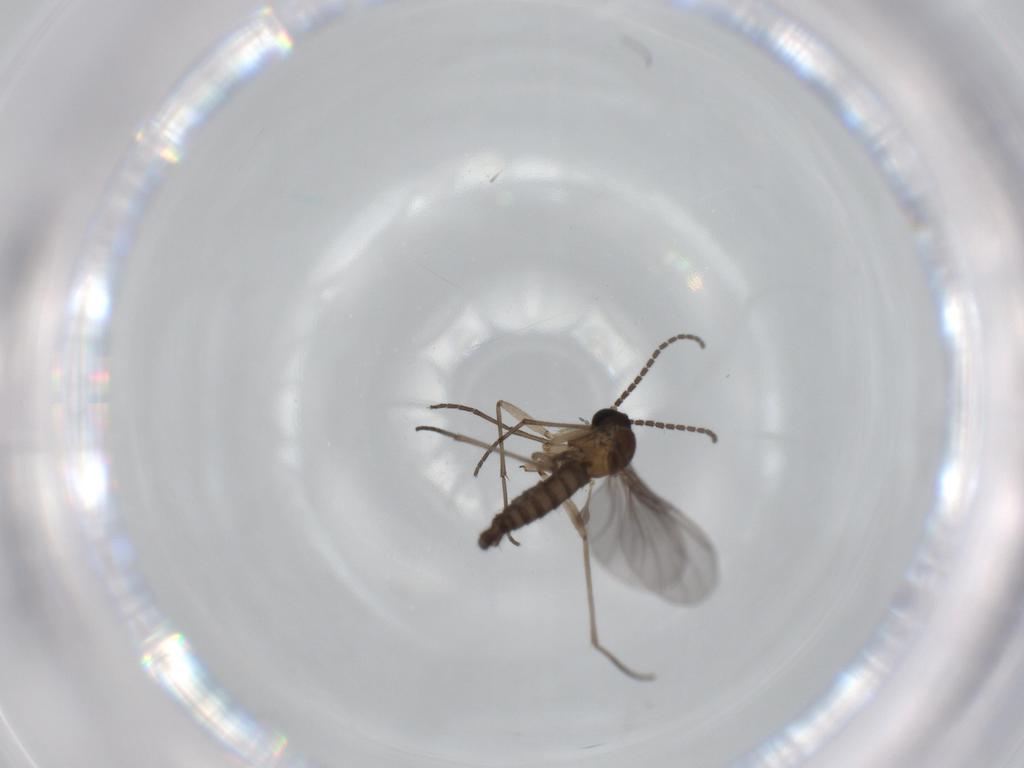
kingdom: Animalia
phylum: Arthropoda
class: Insecta
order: Diptera
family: Sciaridae
